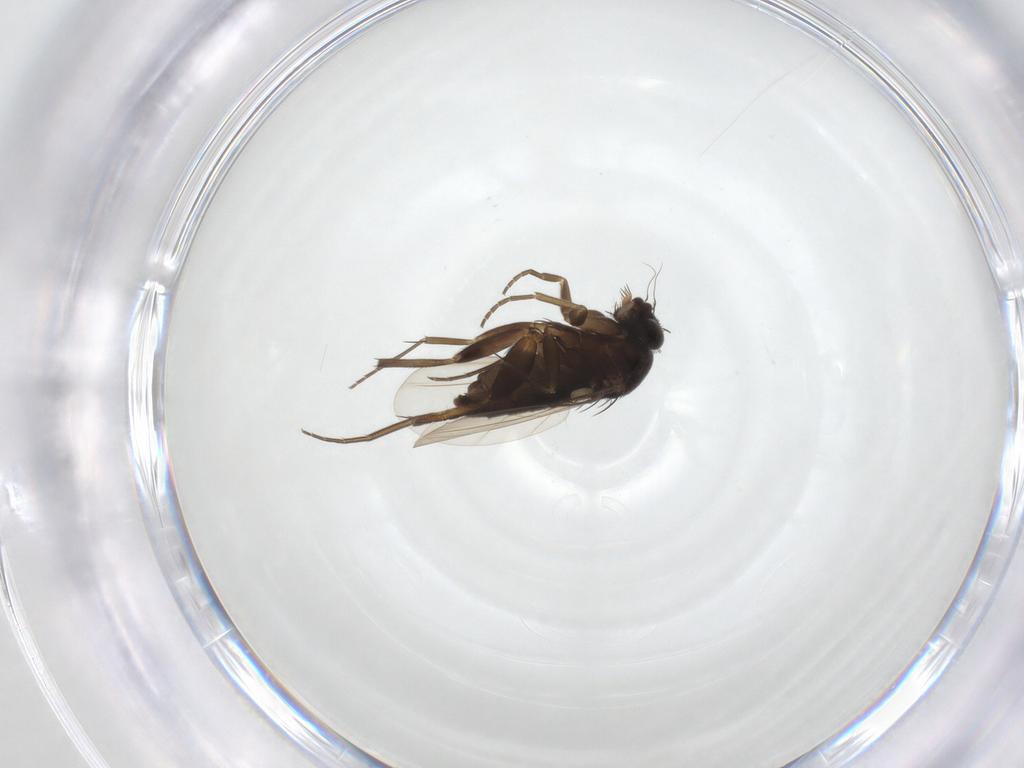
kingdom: Animalia
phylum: Arthropoda
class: Insecta
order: Diptera
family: Phoridae
